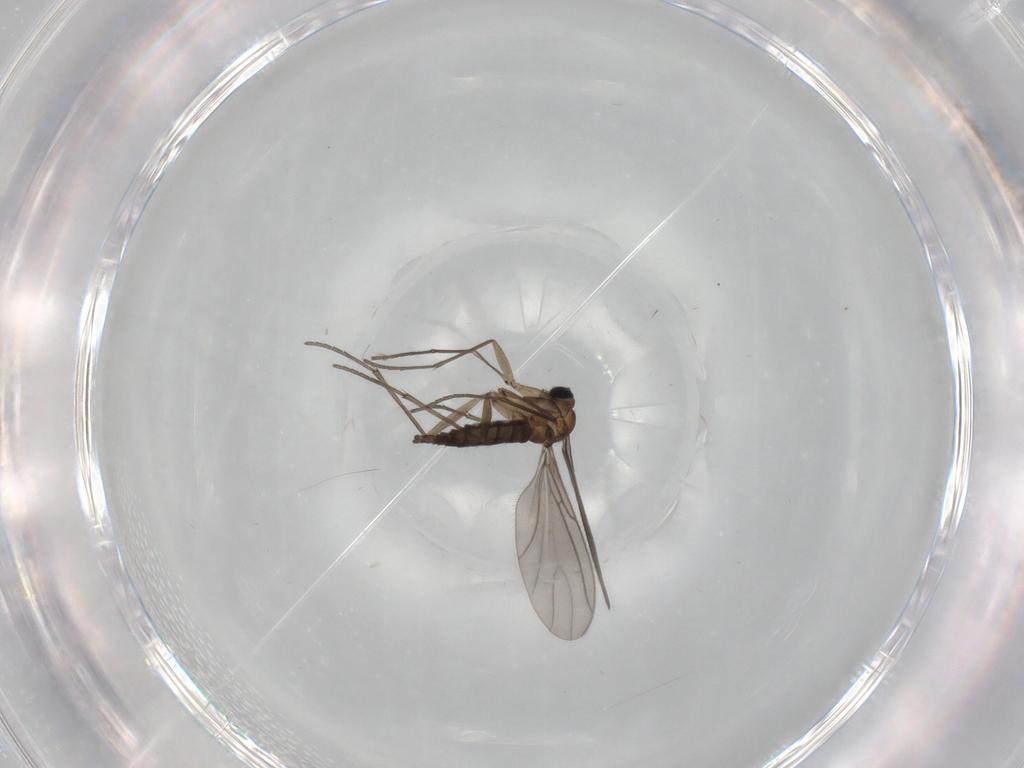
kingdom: Animalia
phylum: Arthropoda
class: Insecta
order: Diptera
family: Sciaridae
